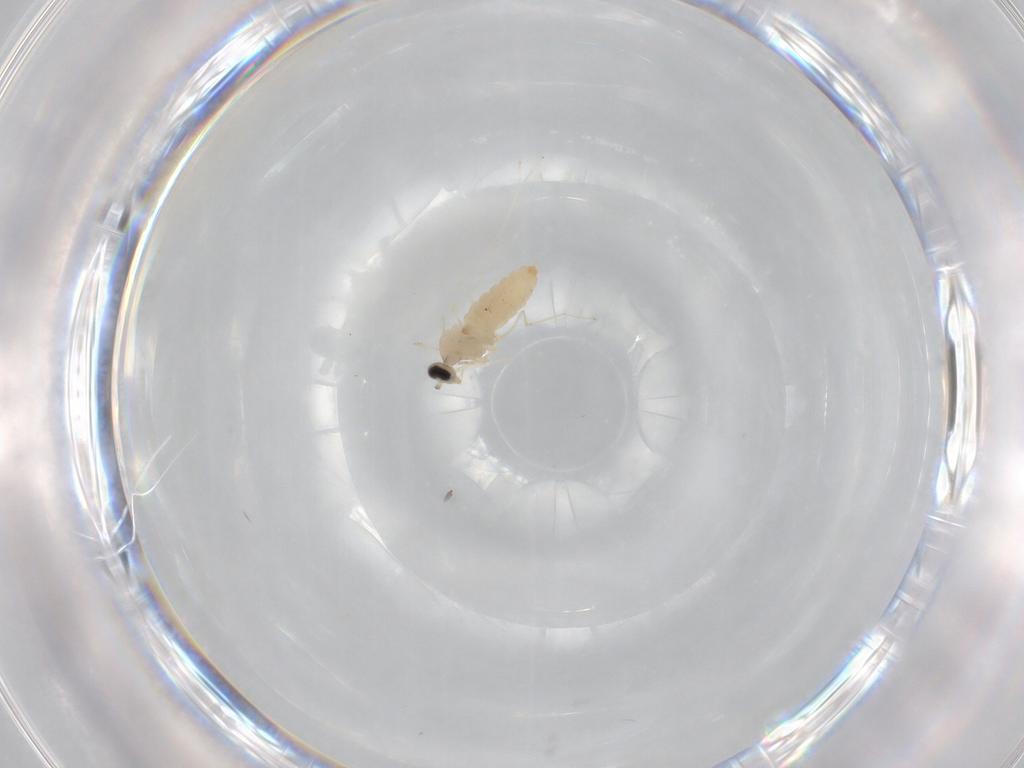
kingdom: Animalia
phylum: Arthropoda
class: Insecta
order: Diptera
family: Cecidomyiidae
